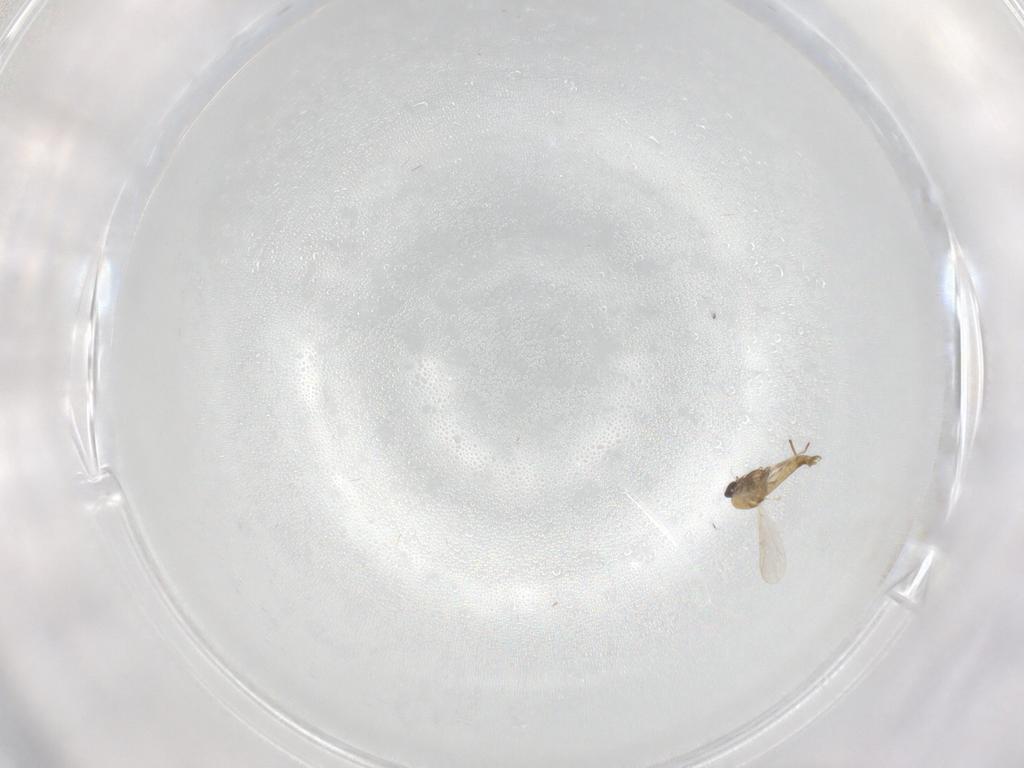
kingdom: Animalia
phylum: Arthropoda
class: Insecta
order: Diptera
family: Chironomidae
